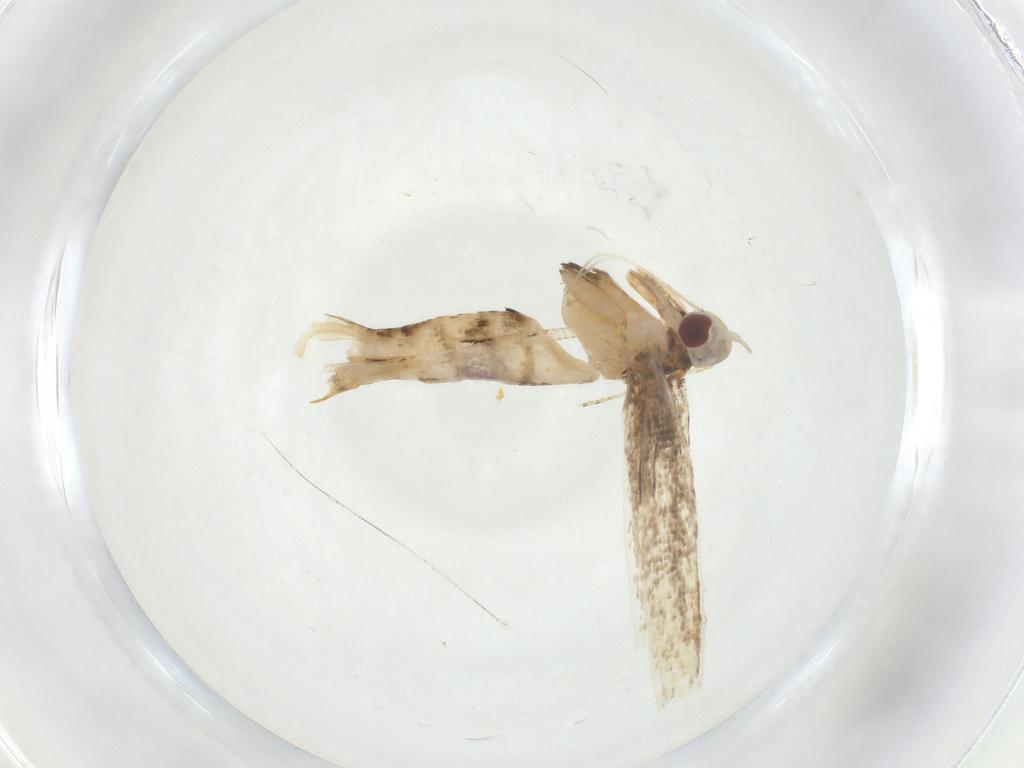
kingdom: Animalia
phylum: Arthropoda
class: Insecta
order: Lepidoptera
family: Cosmopterigidae
